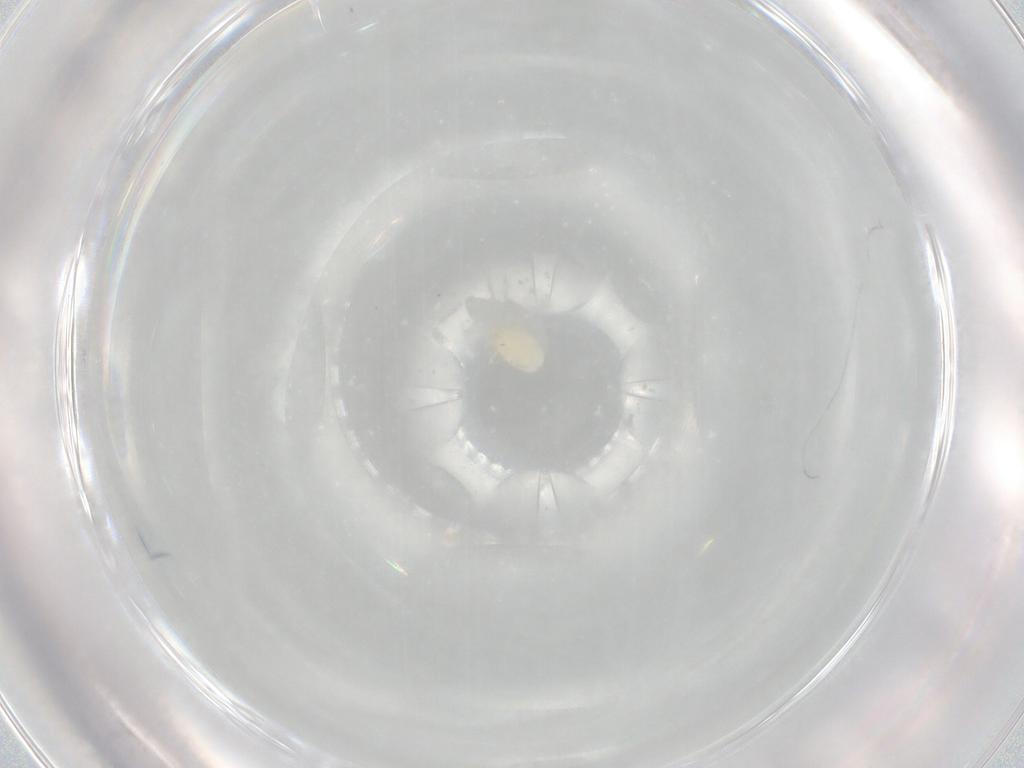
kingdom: Animalia
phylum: Arthropoda
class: Arachnida
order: Trombidiformes
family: Microtrombidiidae
